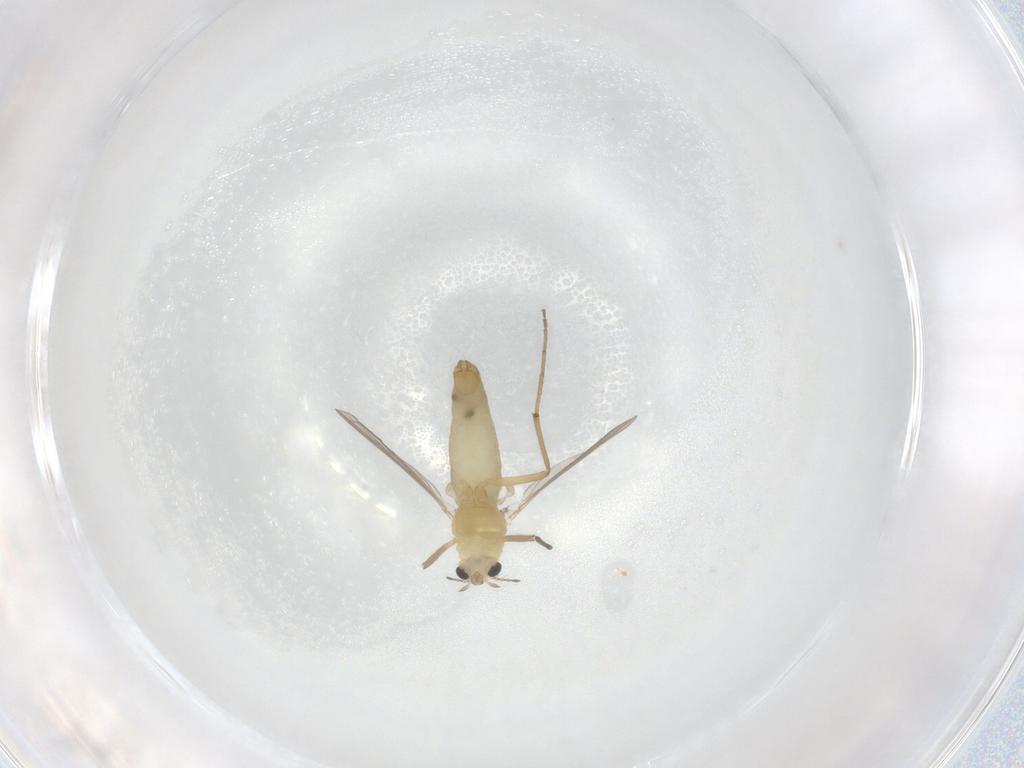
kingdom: Animalia
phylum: Arthropoda
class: Insecta
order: Diptera
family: Chironomidae
